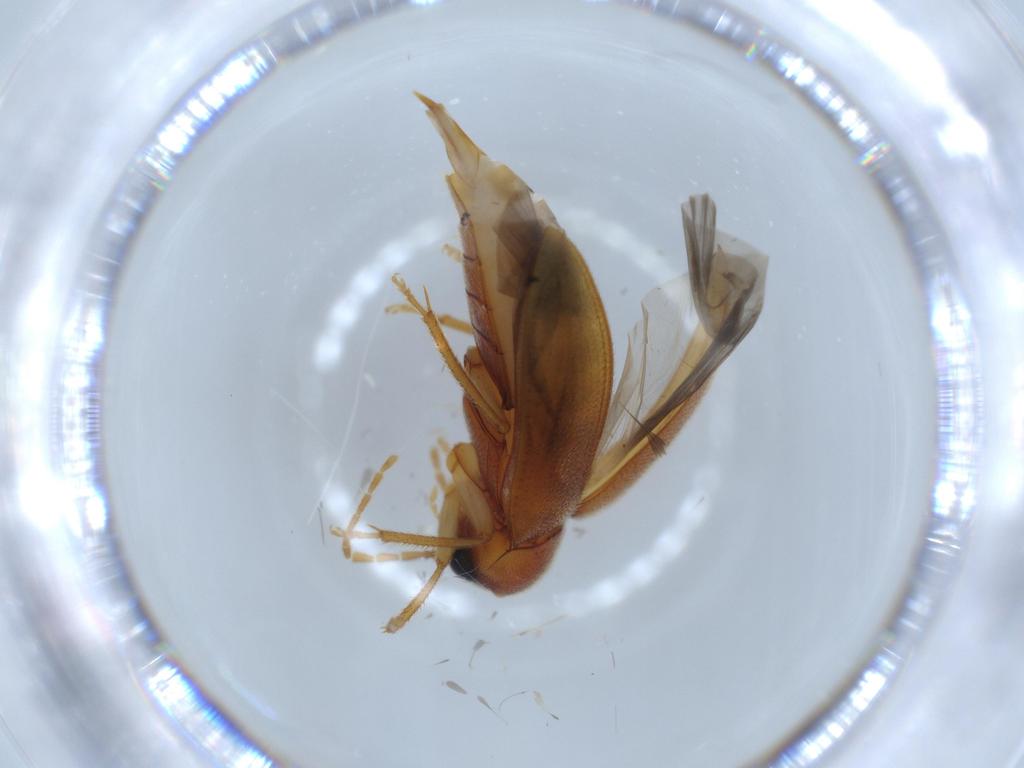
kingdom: Animalia
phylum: Arthropoda
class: Insecta
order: Coleoptera
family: Ptilodactylidae
